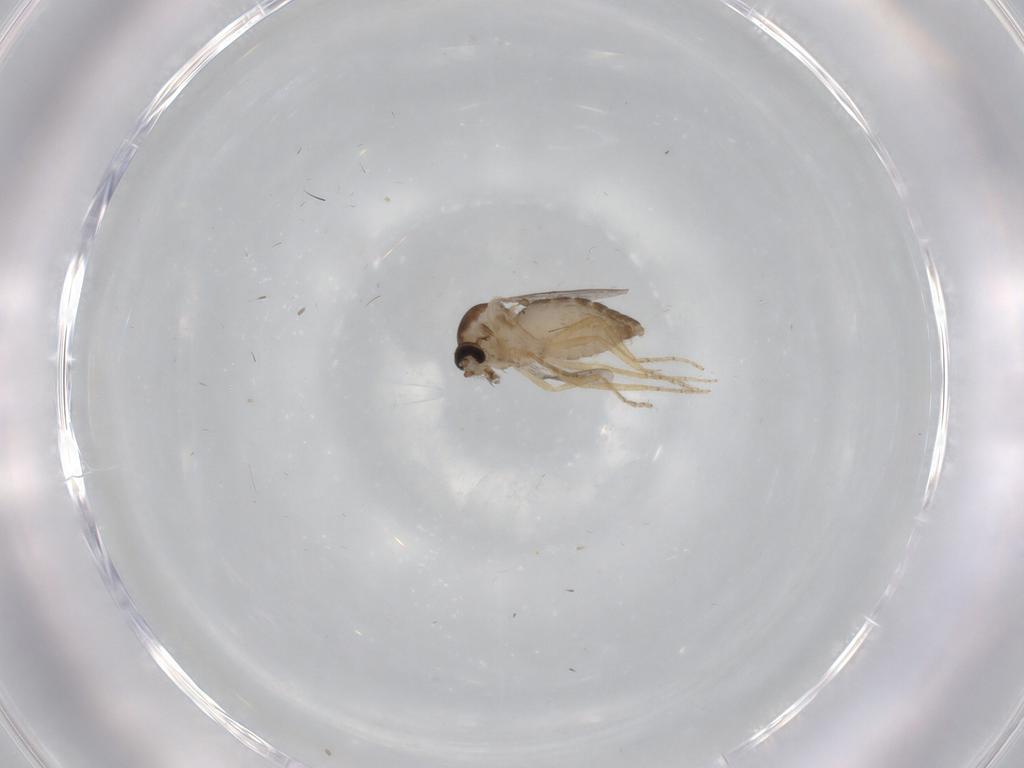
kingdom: Animalia
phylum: Arthropoda
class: Insecta
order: Diptera
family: Ceratopogonidae
